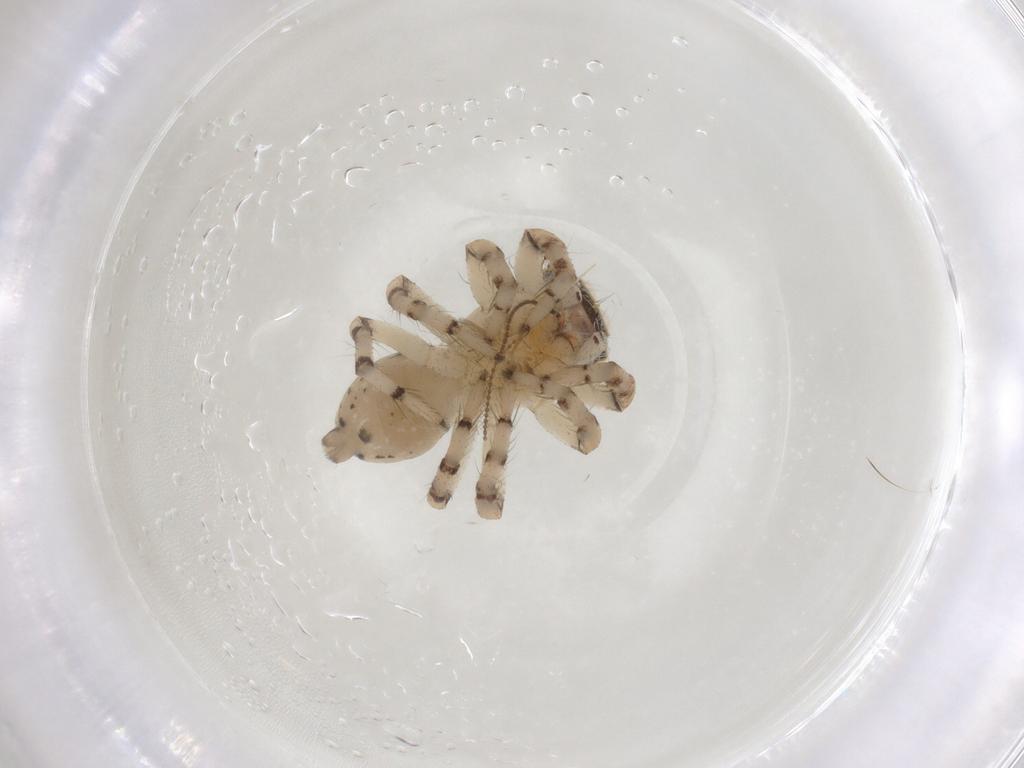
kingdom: Animalia
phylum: Arthropoda
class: Arachnida
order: Araneae
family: Salticidae
